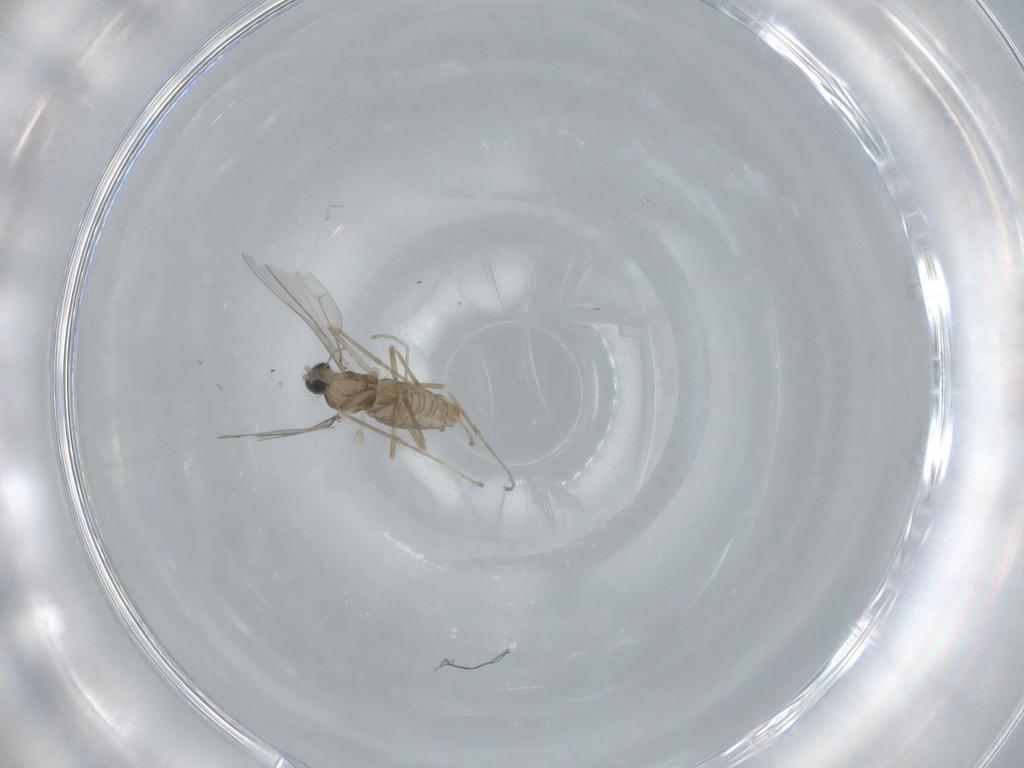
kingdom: Animalia
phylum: Arthropoda
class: Insecta
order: Diptera
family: Sciaridae
